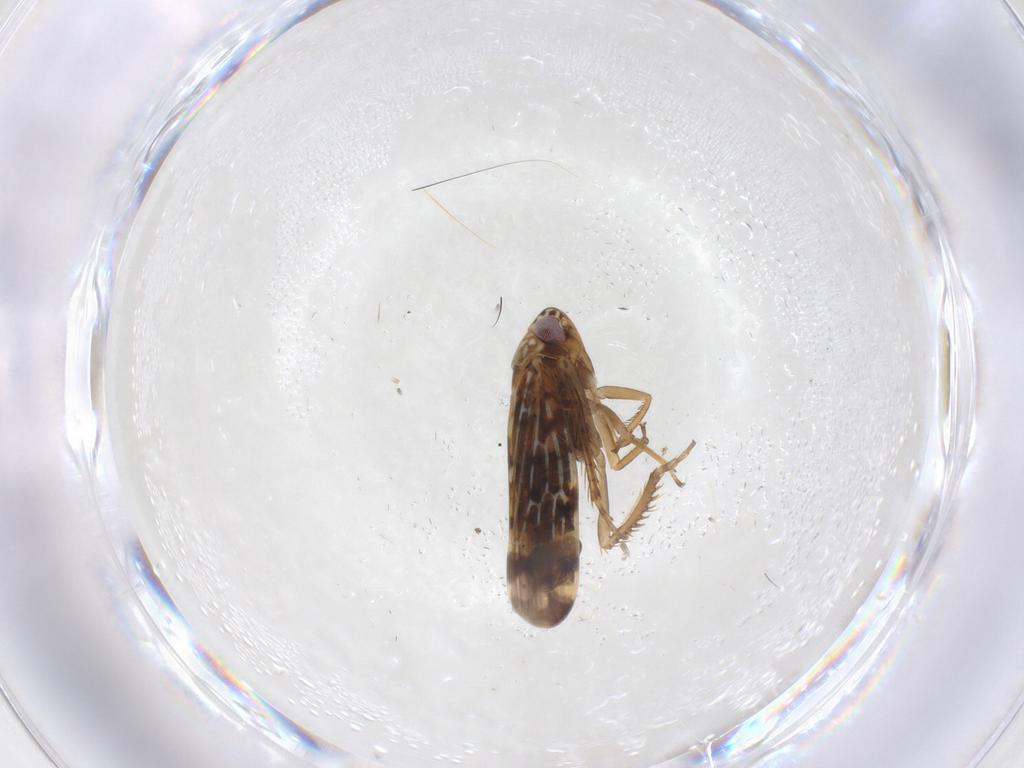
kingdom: Animalia
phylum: Arthropoda
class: Insecta
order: Hemiptera
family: Cicadellidae
